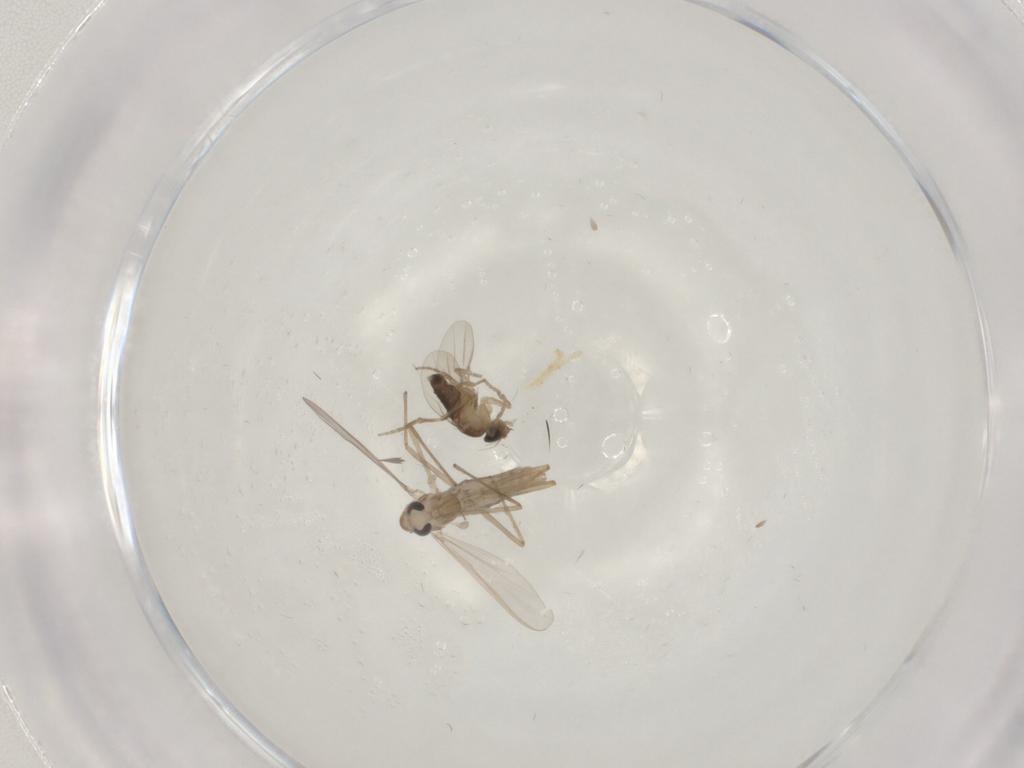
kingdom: Animalia
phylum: Arthropoda
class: Insecta
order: Diptera
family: Phoridae
